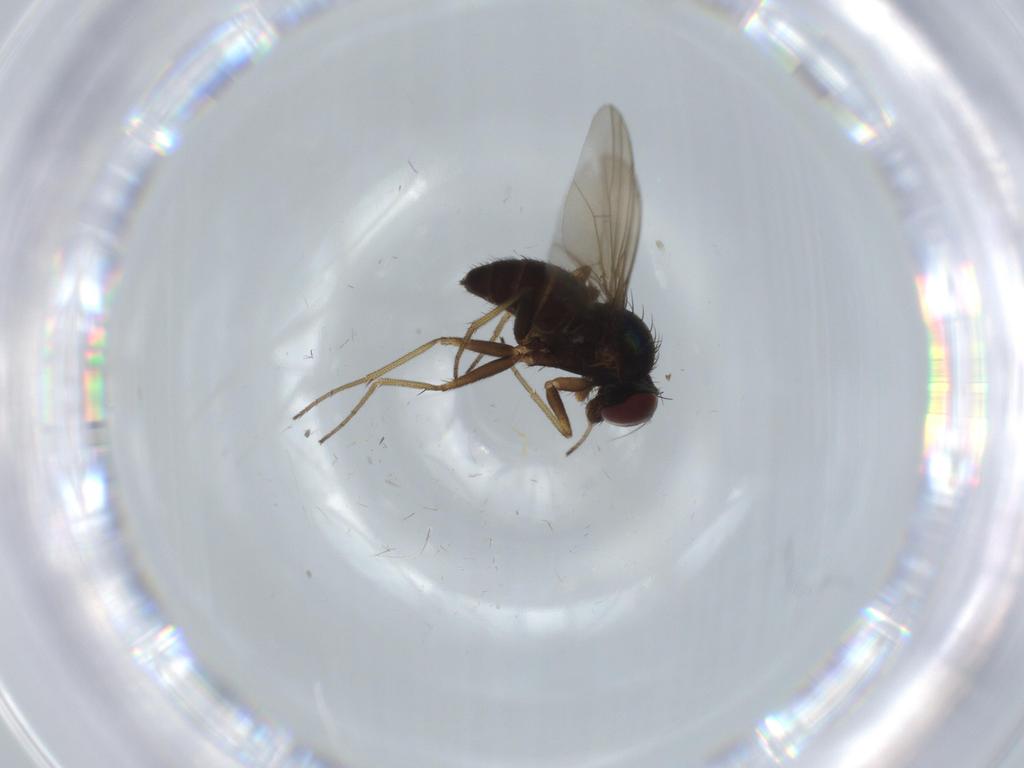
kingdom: Animalia
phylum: Arthropoda
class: Insecta
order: Diptera
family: Dolichopodidae
